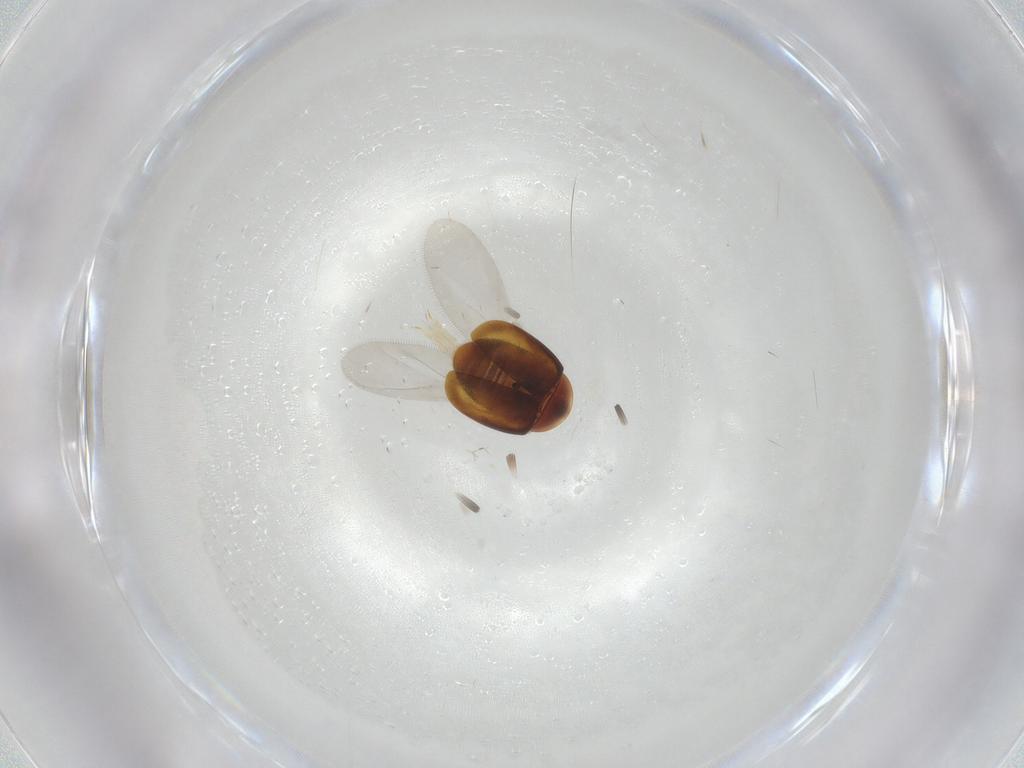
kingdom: Animalia
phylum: Arthropoda
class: Insecta
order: Coleoptera
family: Corylophidae
